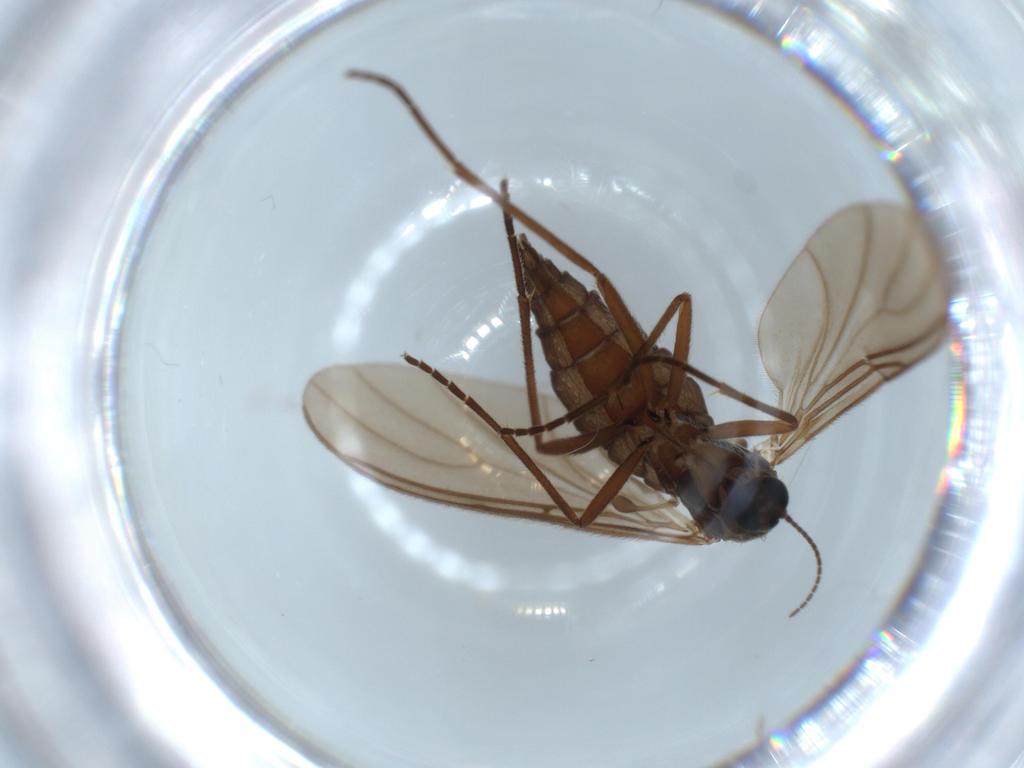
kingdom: Animalia
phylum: Arthropoda
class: Insecta
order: Diptera
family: Sciaridae
